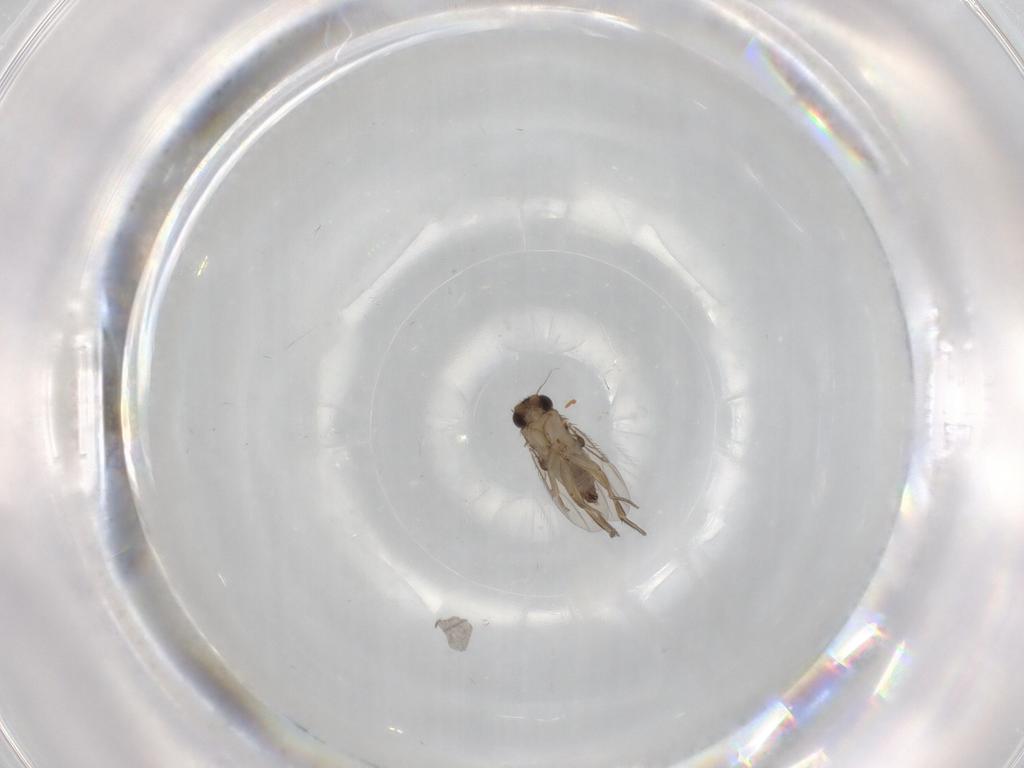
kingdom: Animalia
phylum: Arthropoda
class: Insecta
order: Diptera
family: Phoridae
